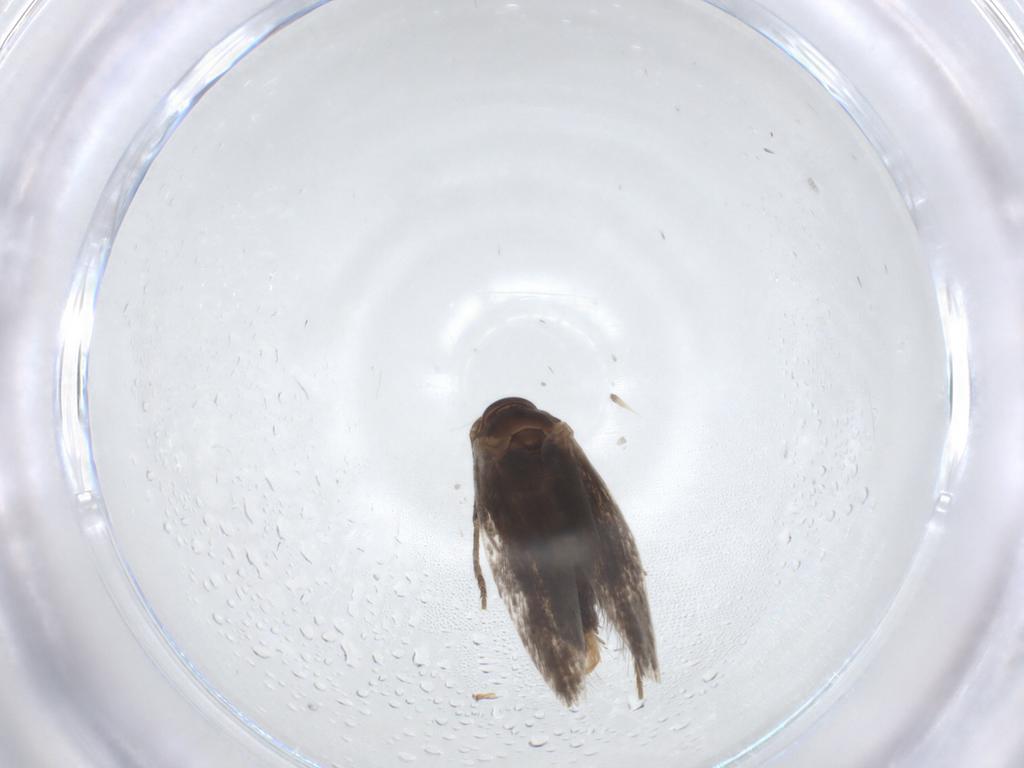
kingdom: Animalia
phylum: Arthropoda
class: Insecta
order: Lepidoptera
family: Elachistidae
